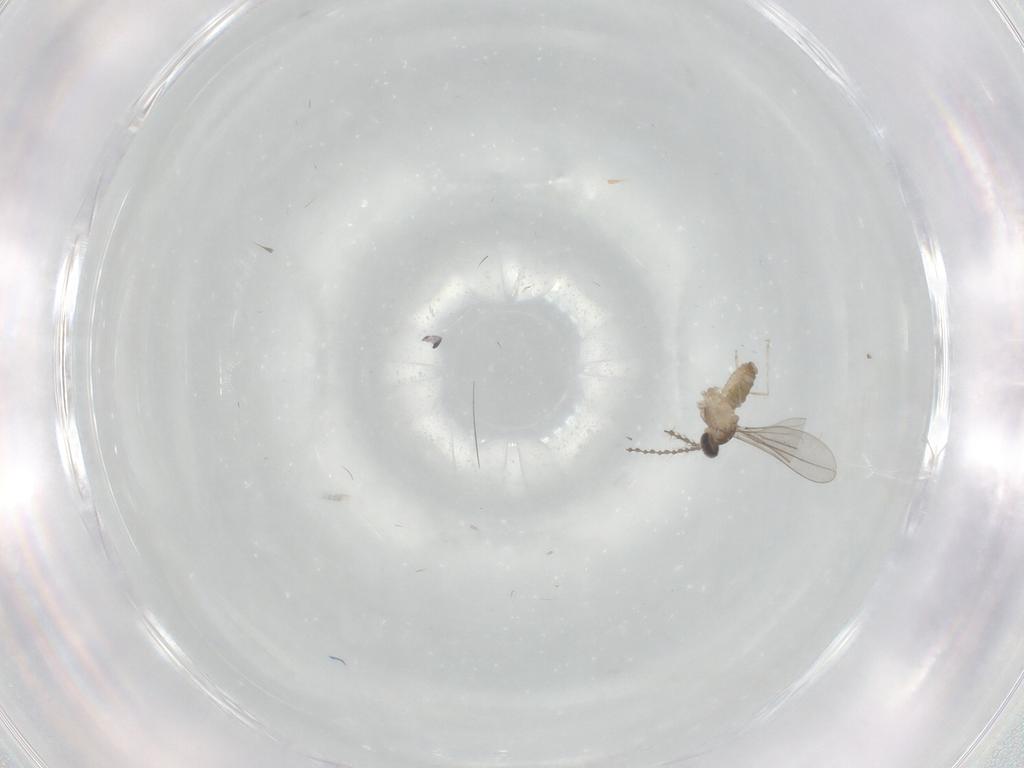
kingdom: Animalia
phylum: Arthropoda
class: Insecta
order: Diptera
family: Cecidomyiidae
